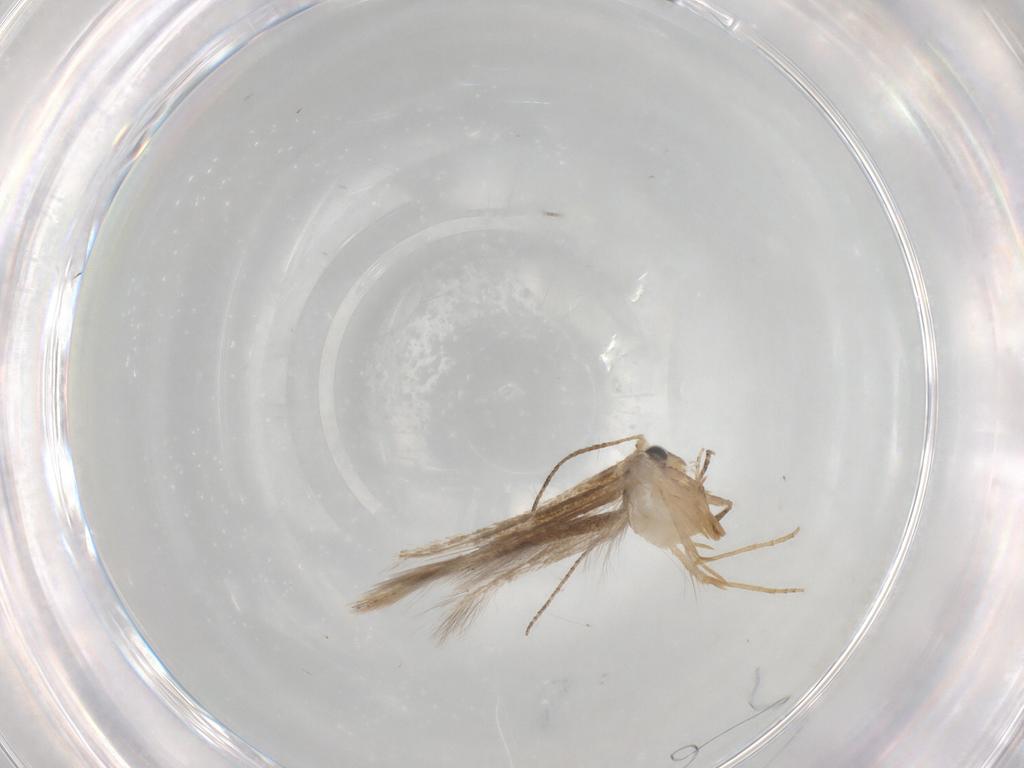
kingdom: Animalia
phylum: Arthropoda
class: Insecta
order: Lepidoptera
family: Bucculatricidae
